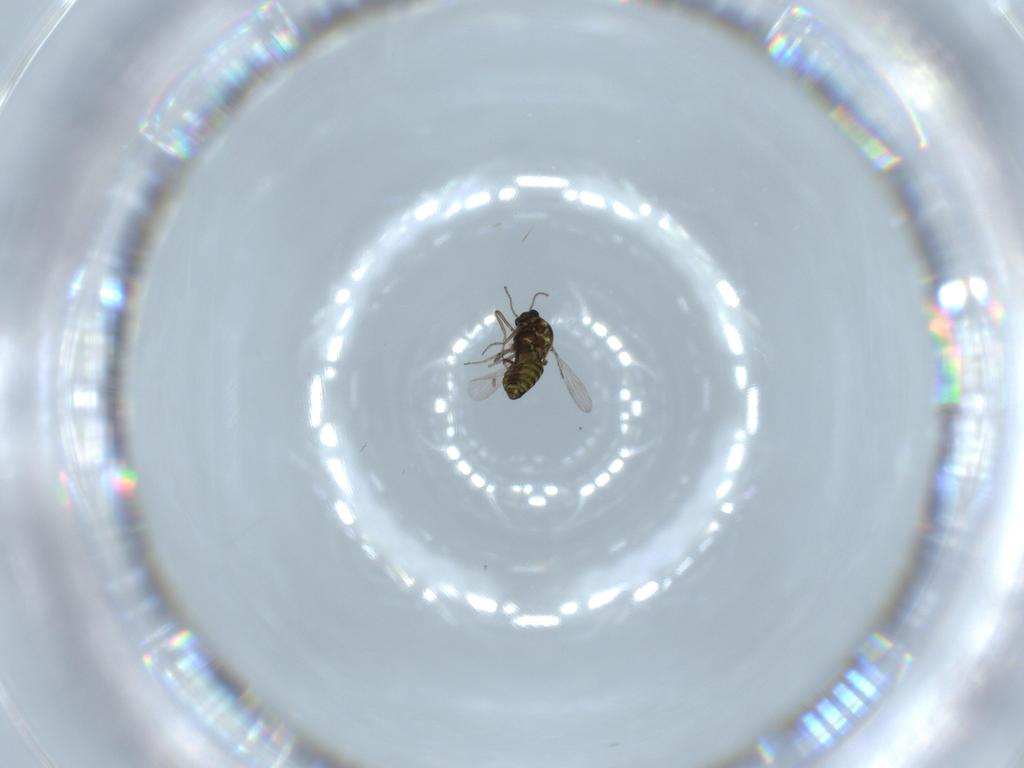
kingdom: Animalia
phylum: Arthropoda
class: Insecta
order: Diptera
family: Ceratopogonidae
